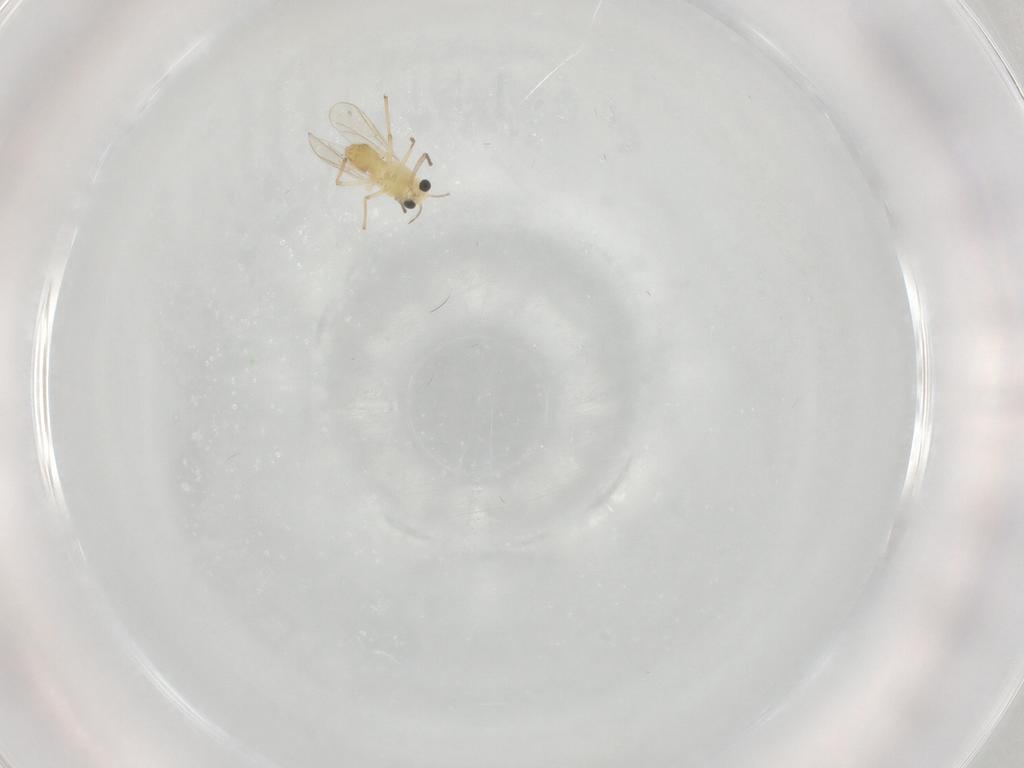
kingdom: Animalia
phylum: Arthropoda
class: Insecta
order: Diptera
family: Chironomidae
